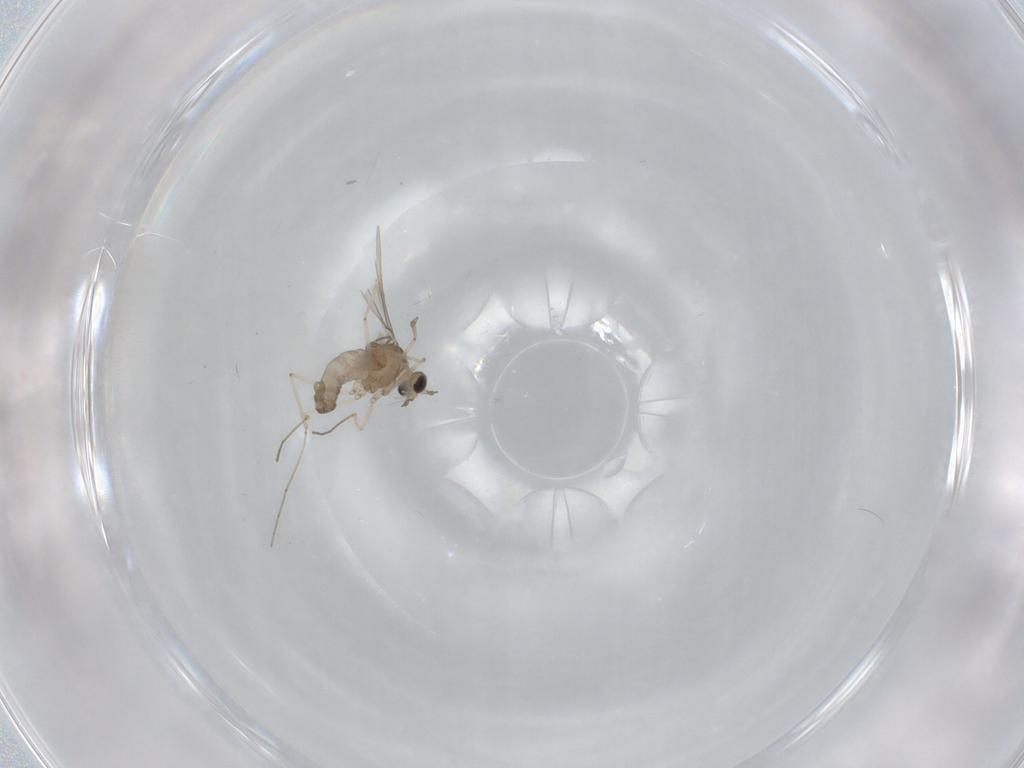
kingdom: Animalia
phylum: Arthropoda
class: Insecta
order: Diptera
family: Cecidomyiidae
